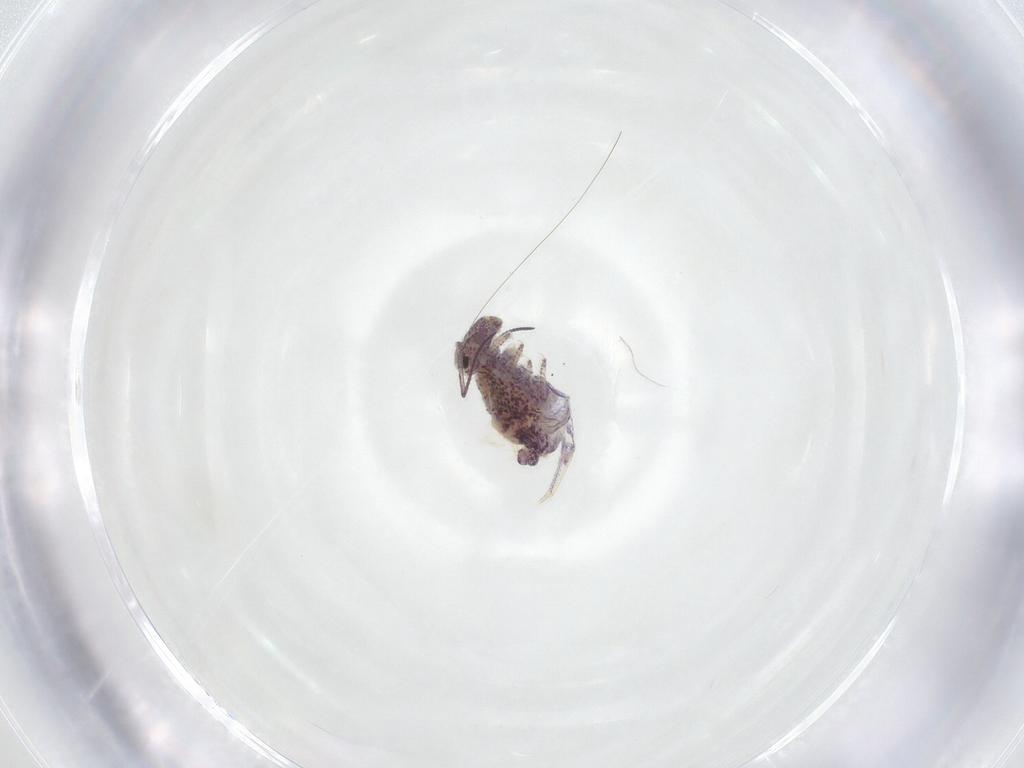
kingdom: Animalia
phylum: Arthropoda
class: Collembola
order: Symphypleona
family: Sminthuridae
